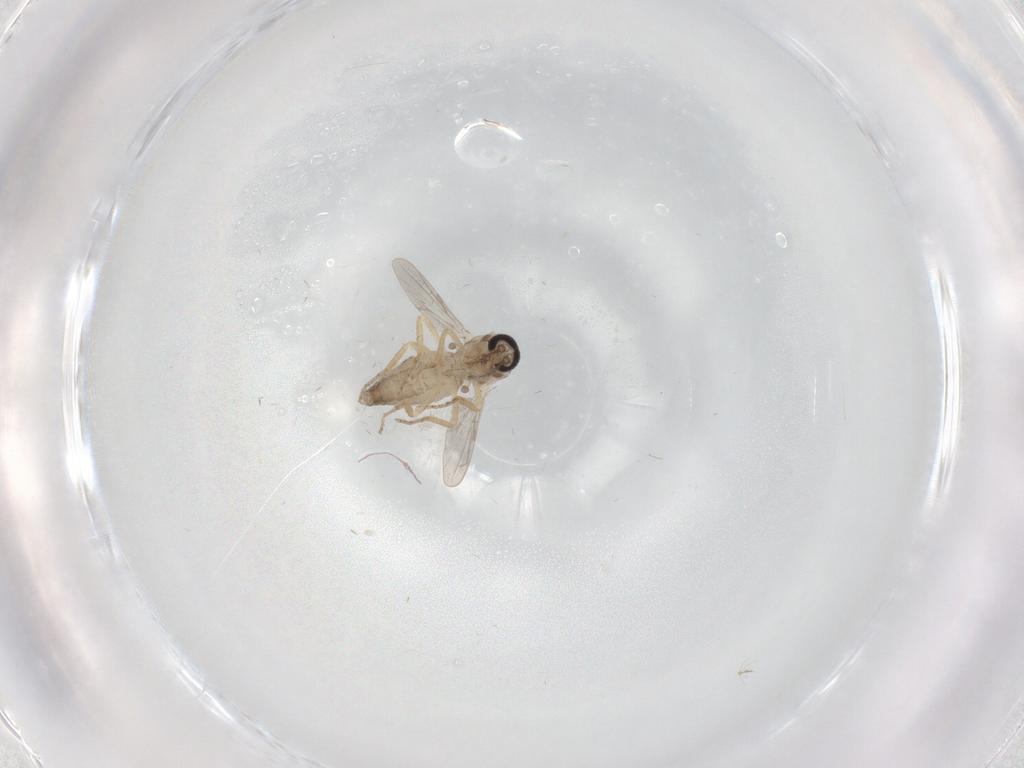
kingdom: Animalia
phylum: Arthropoda
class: Insecta
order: Diptera
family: Ceratopogonidae
